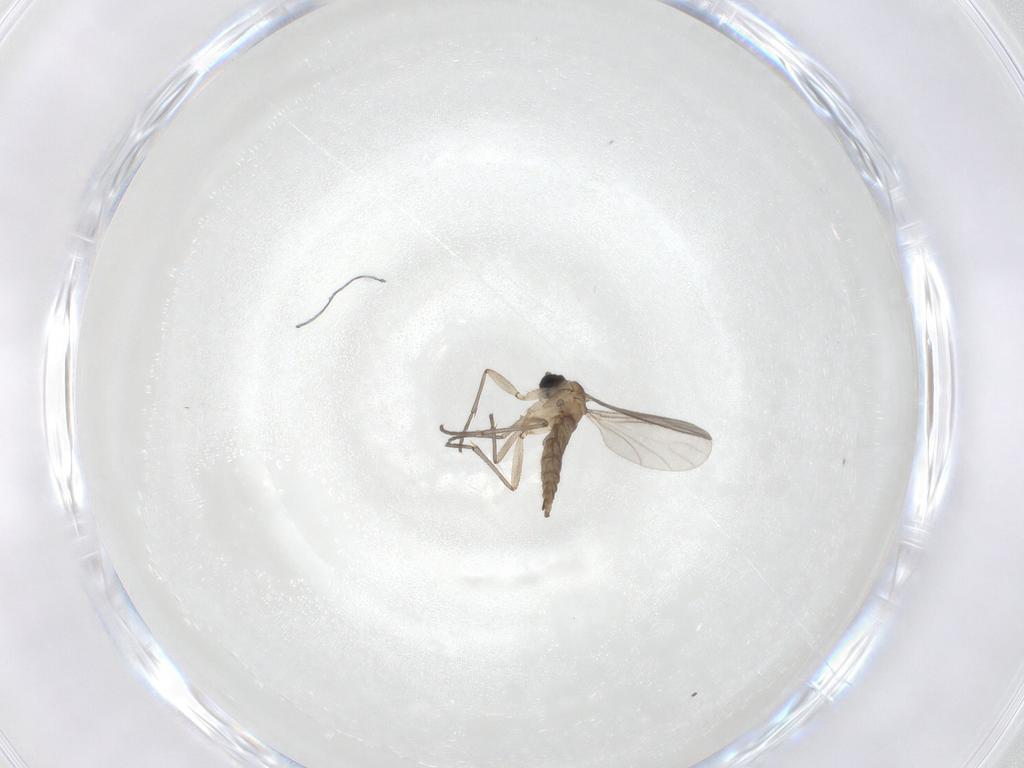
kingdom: Animalia
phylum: Arthropoda
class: Insecta
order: Diptera
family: Sciaridae
